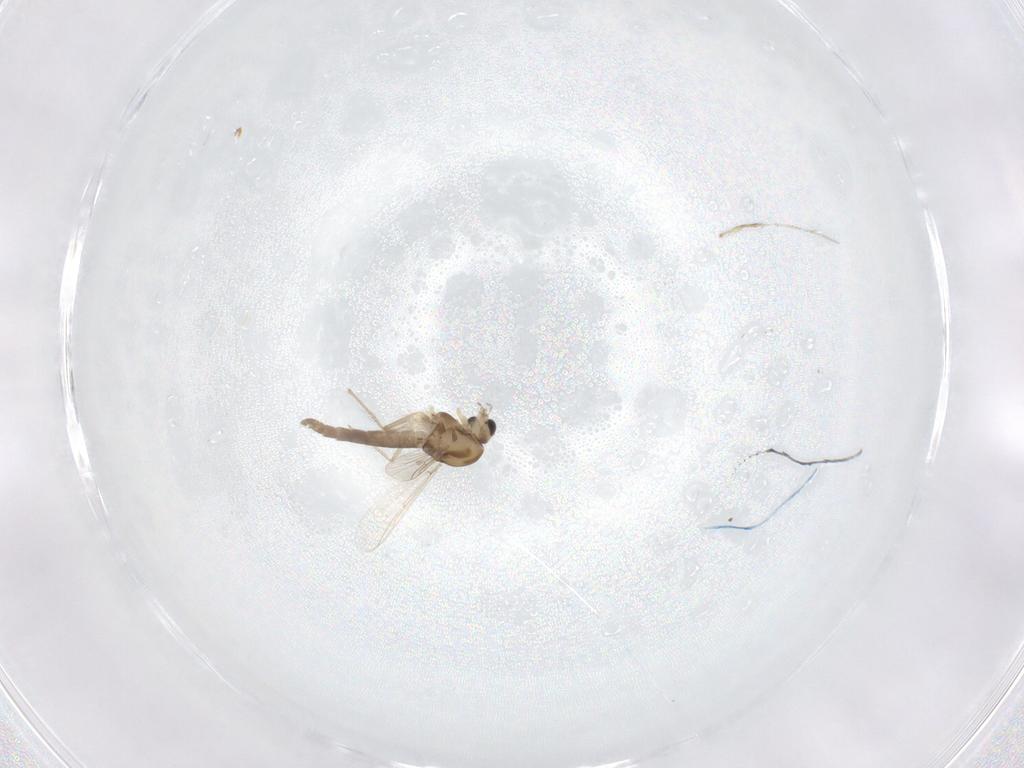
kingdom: Animalia
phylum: Arthropoda
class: Insecta
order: Diptera
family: Chironomidae
